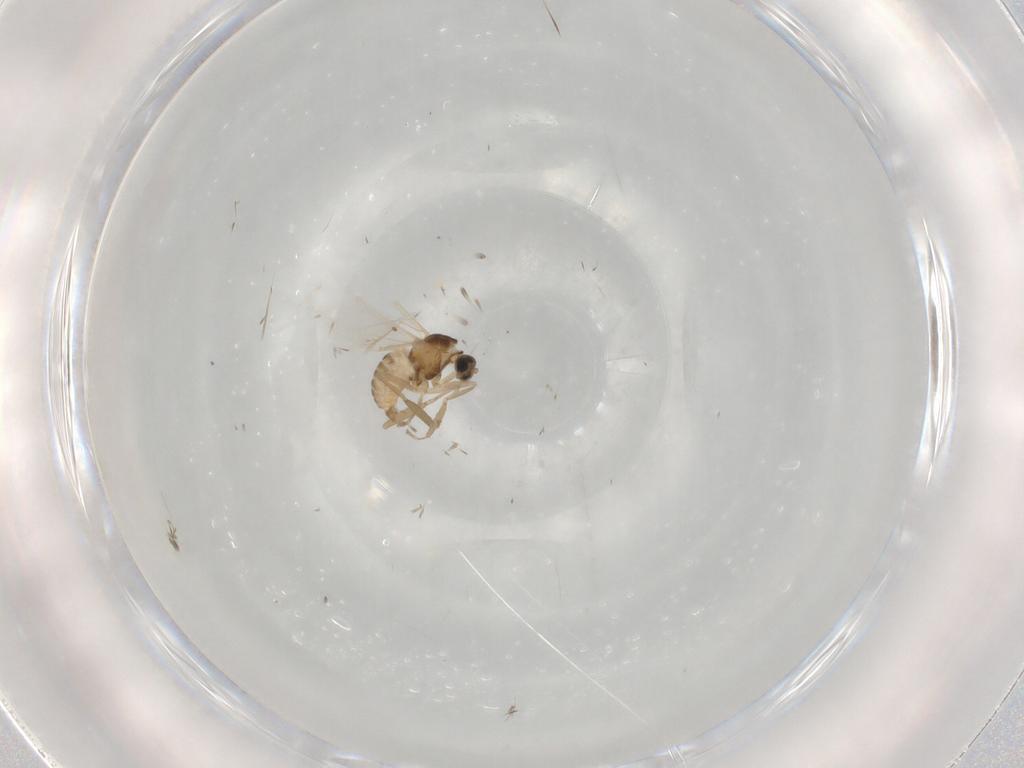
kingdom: Animalia
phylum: Arthropoda
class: Insecta
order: Diptera
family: Cecidomyiidae
